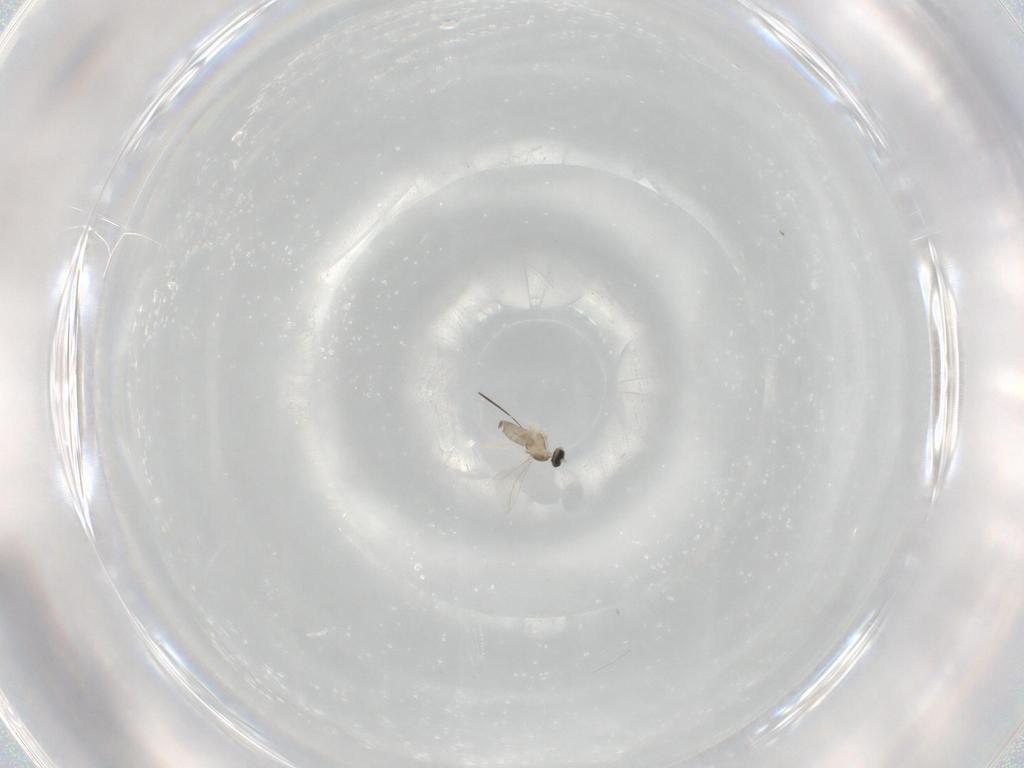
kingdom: Animalia
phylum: Arthropoda
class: Insecta
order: Diptera
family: Cecidomyiidae
